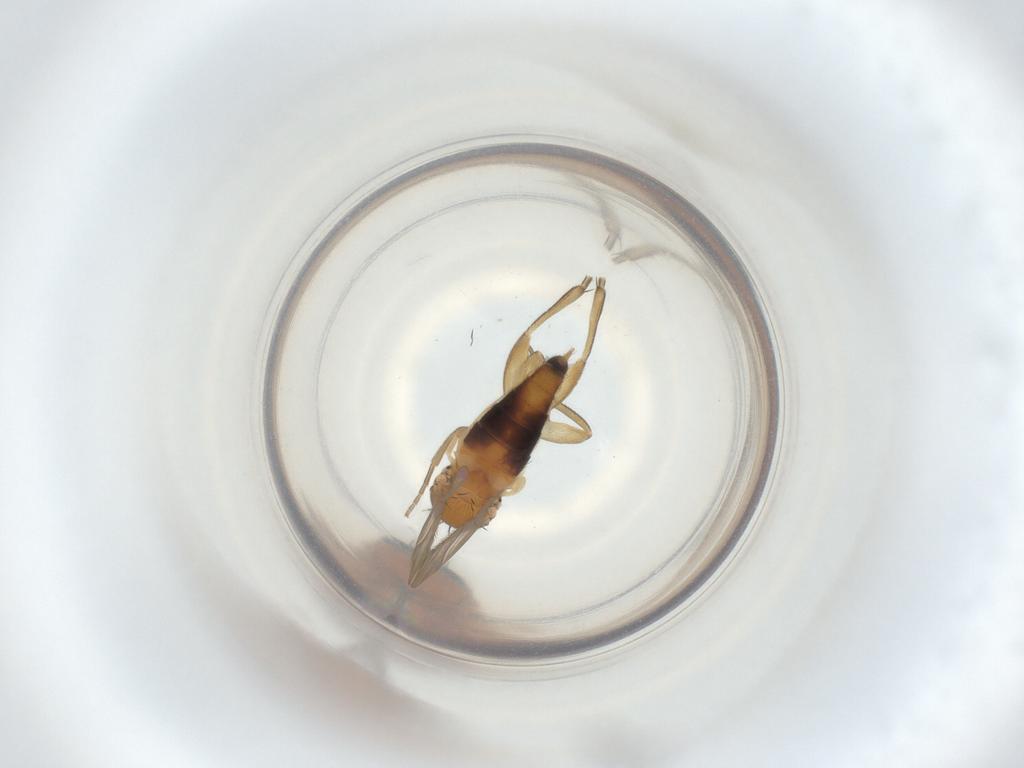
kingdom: Animalia
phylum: Arthropoda
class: Insecta
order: Diptera
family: Phoridae
